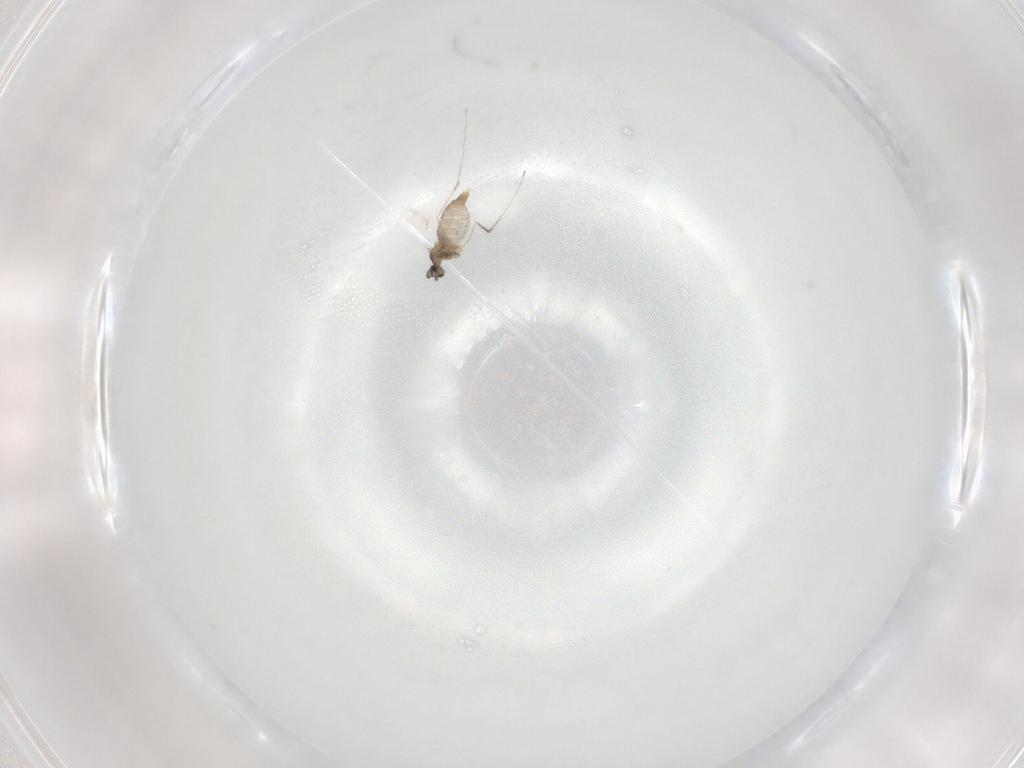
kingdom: Animalia
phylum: Arthropoda
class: Insecta
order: Diptera
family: Cecidomyiidae
